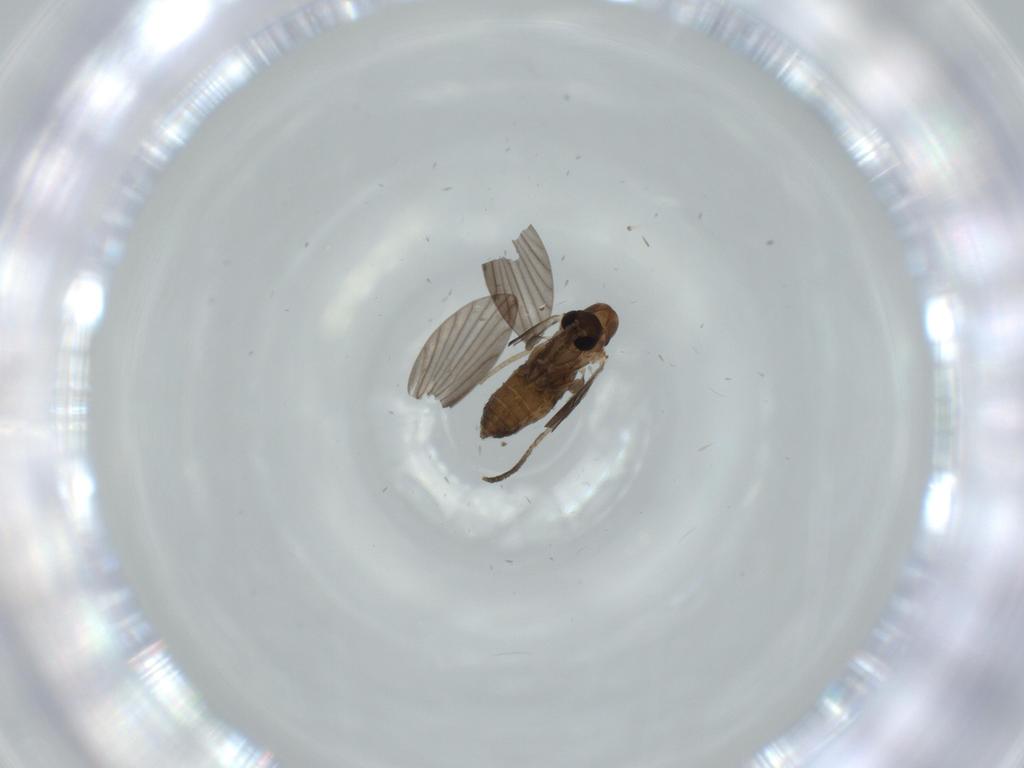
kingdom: Animalia
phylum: Arthropoda
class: Insecta
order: Diptera
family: Psychodidae
